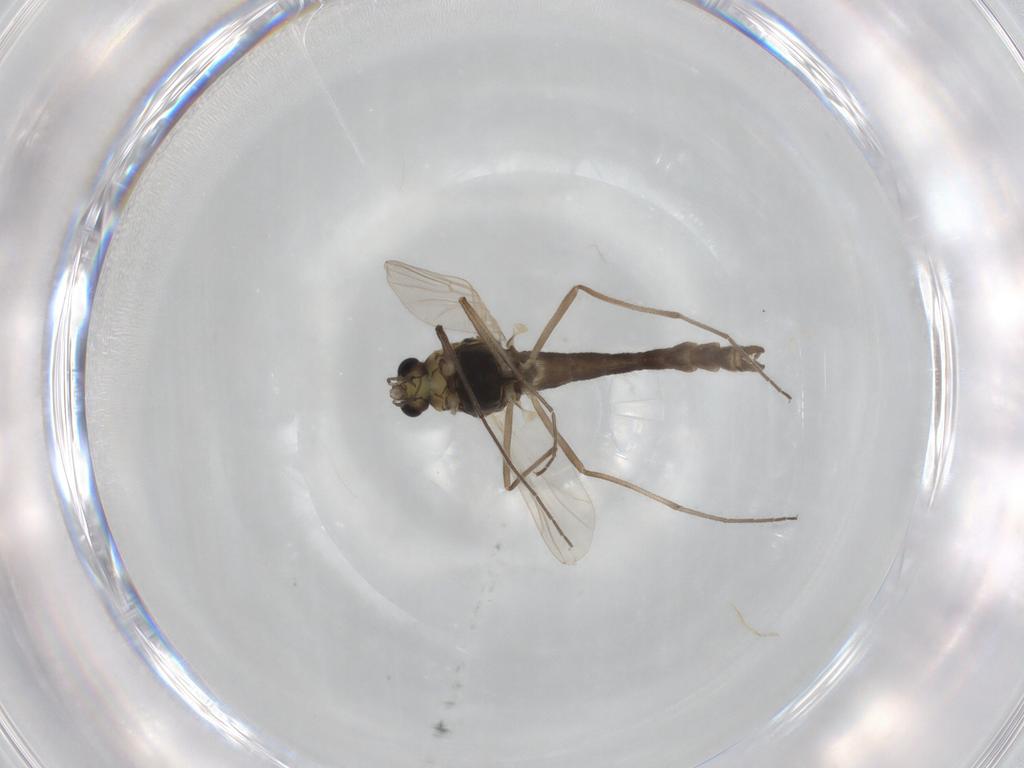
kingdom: Animalia
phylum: Arthropoda
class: Insecta
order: Diptera
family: Chironomidae
